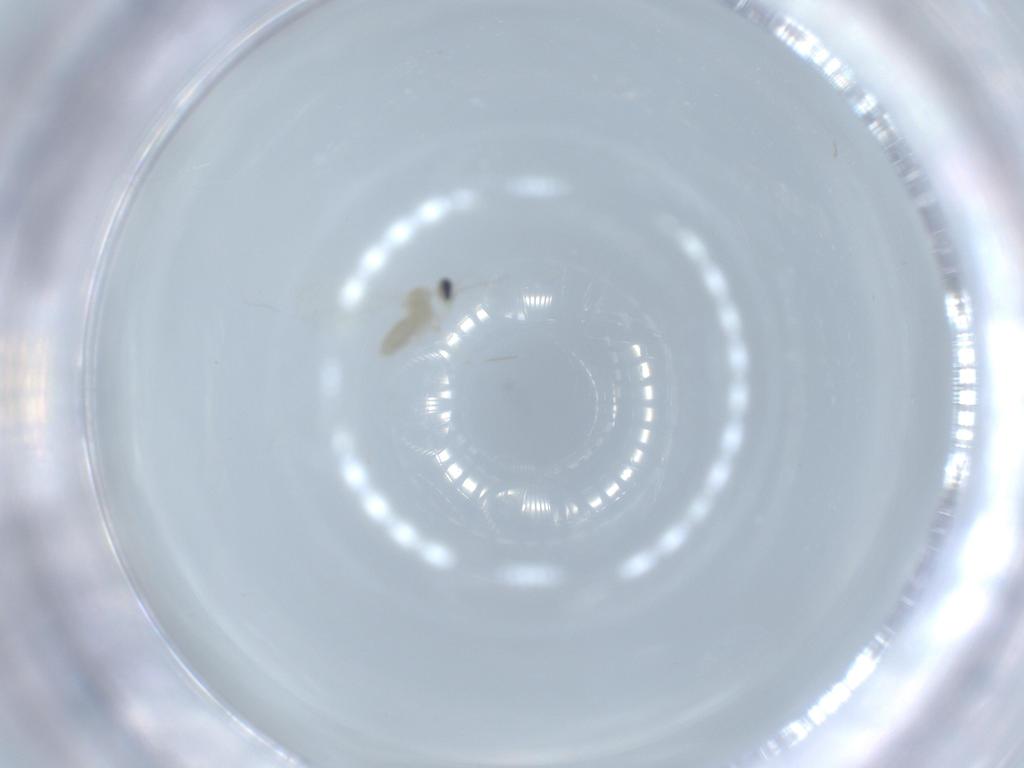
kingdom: Animalia
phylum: Arthropoda
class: Insecta
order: Diptera
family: Cecidomyiidae
